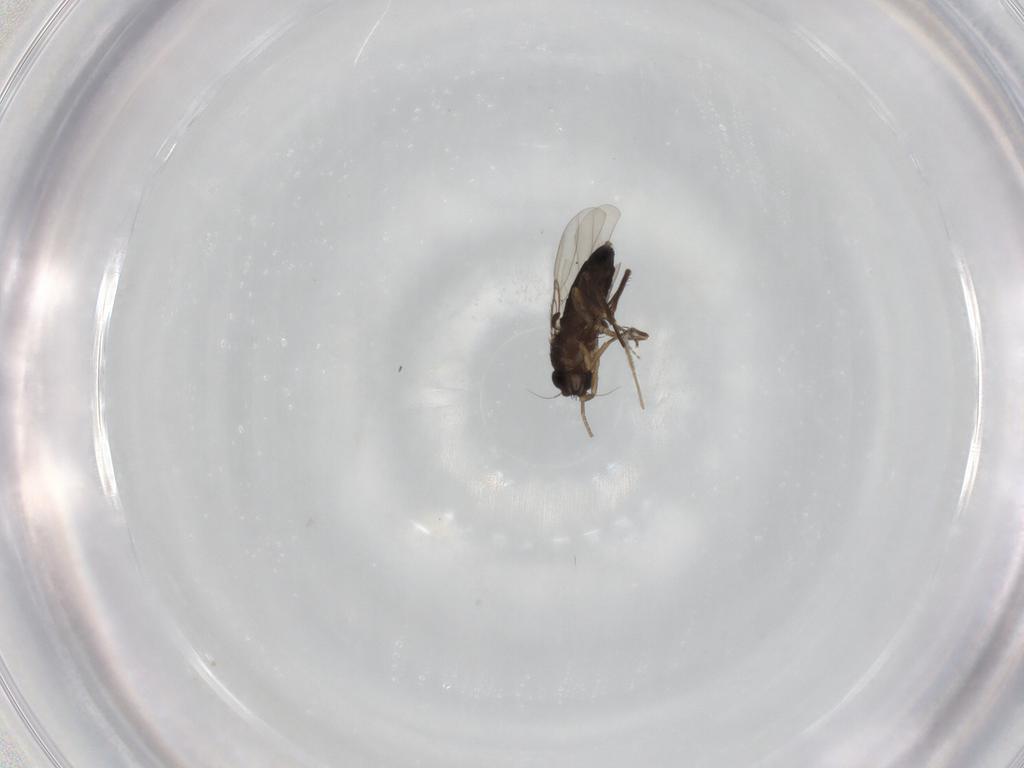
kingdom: Animalia
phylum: Arthropoda
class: Insecta
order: Diptera
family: Phoridae
